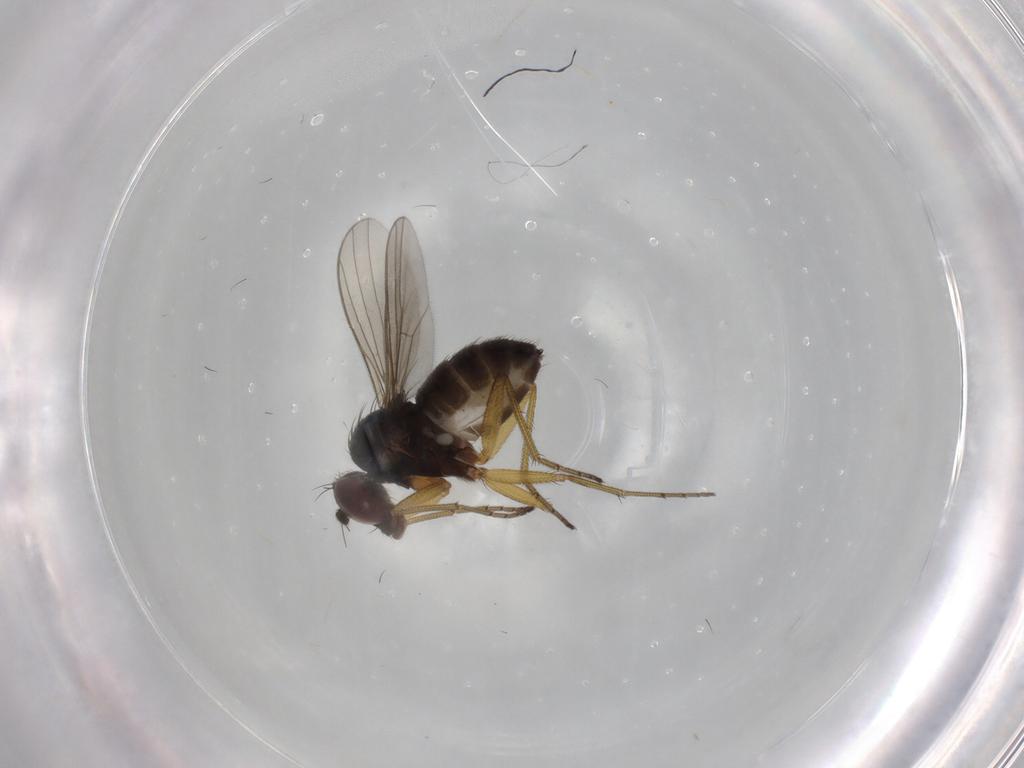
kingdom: Animalia
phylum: Arthropoda
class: Insecta
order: Diptera
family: Dolichopodidae
